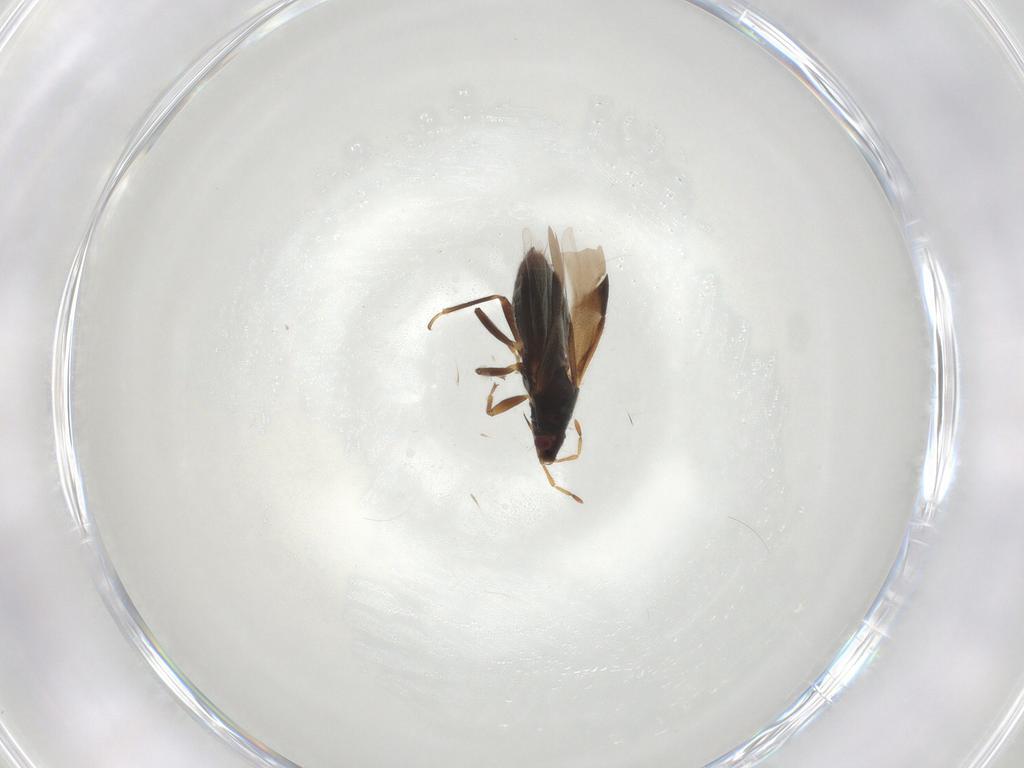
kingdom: Animalia
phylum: Arthropoda
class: Insecta
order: Hemiptera
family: Anthocoridae
